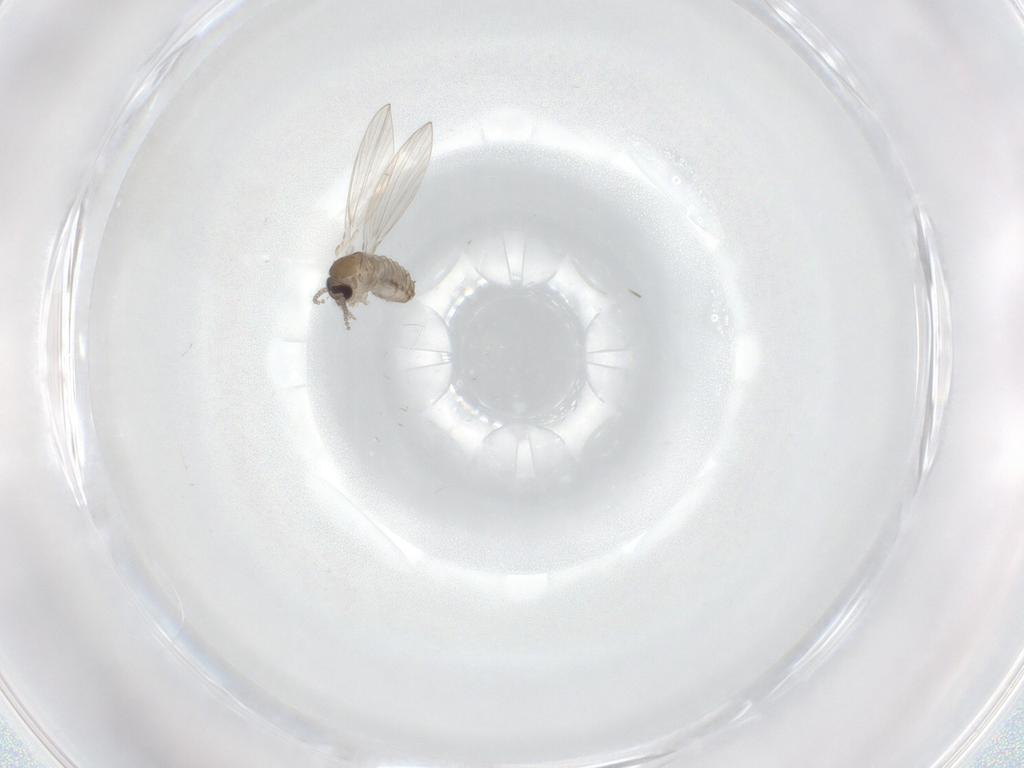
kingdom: Animalia
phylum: Arthropoda
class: Insecta
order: Diptera
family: Psychodidae
